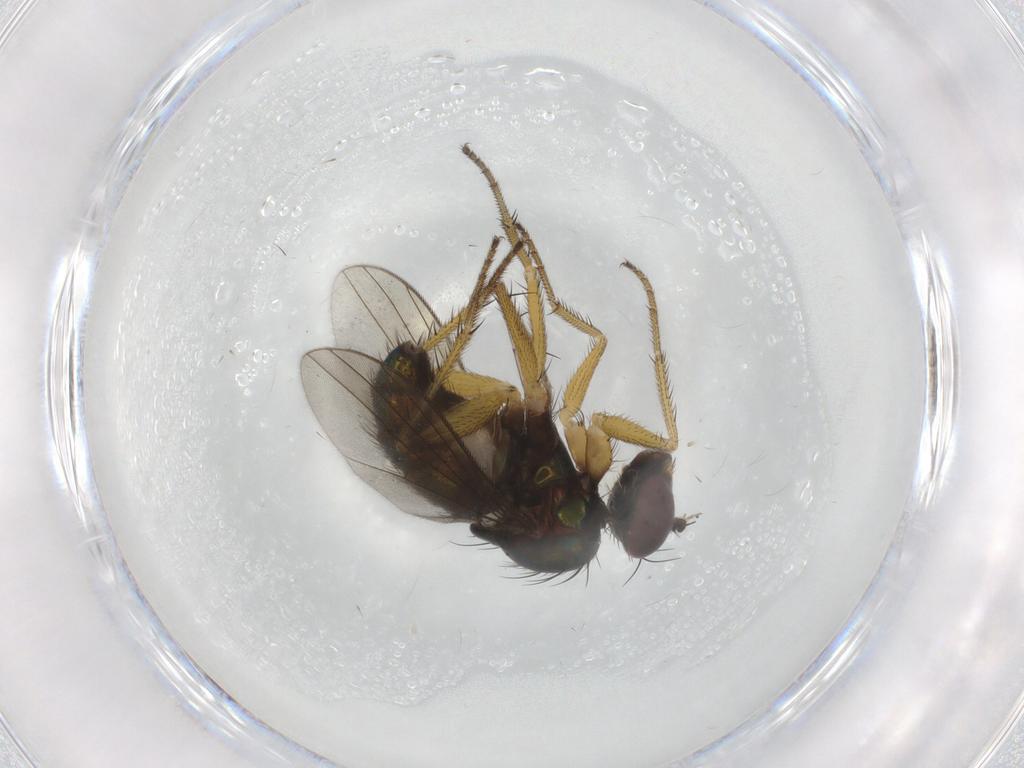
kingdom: Animalia
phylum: Arthropoda
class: Insecta
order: Diptera
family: Dolichopodidae
